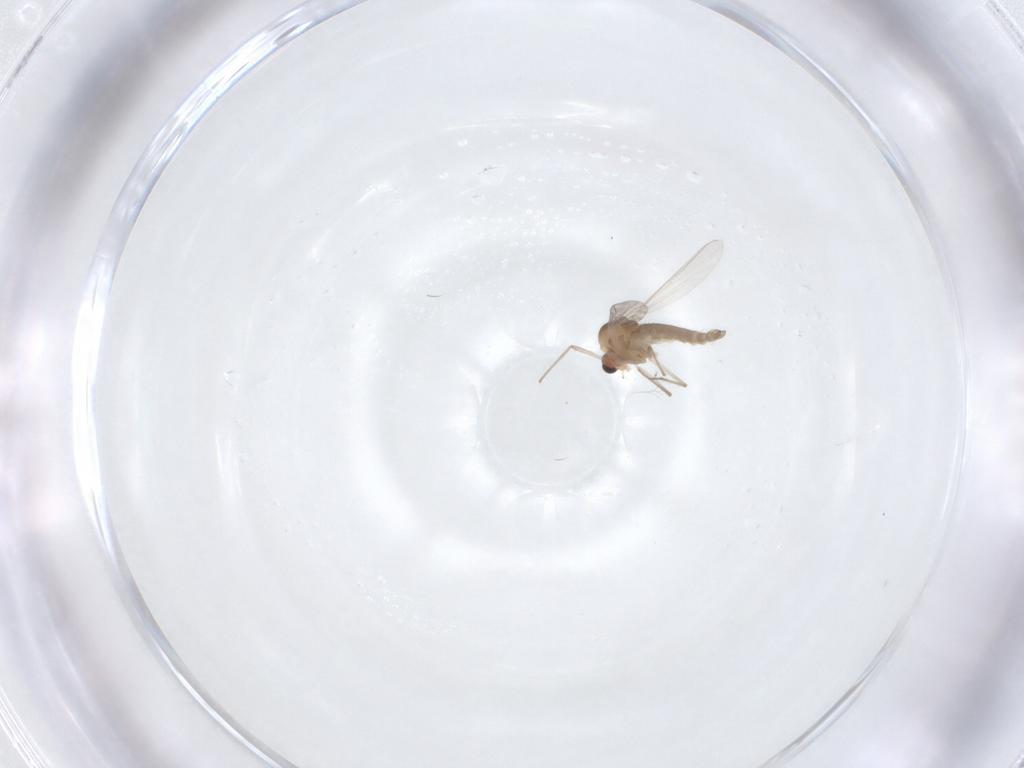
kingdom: Animalia
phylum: Arthropoda
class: Insecta
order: Diptera
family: Chironomidae
